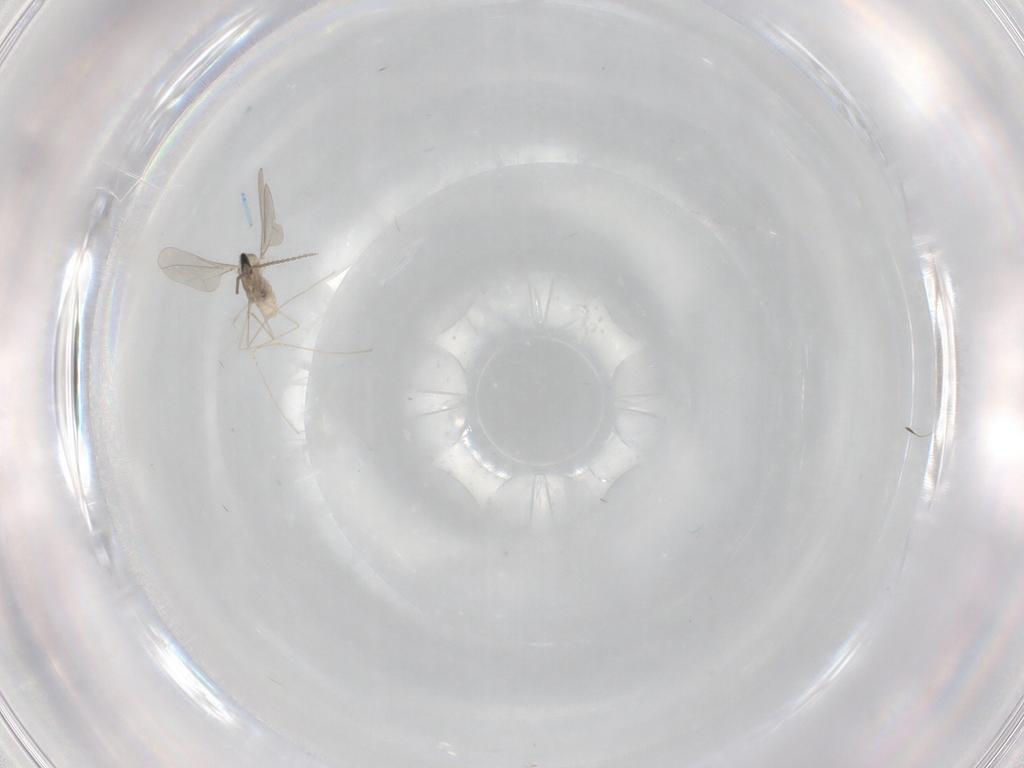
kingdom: Animalia
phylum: Arthropoda
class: Insecta
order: Diptera
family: Cecidomyiidae
